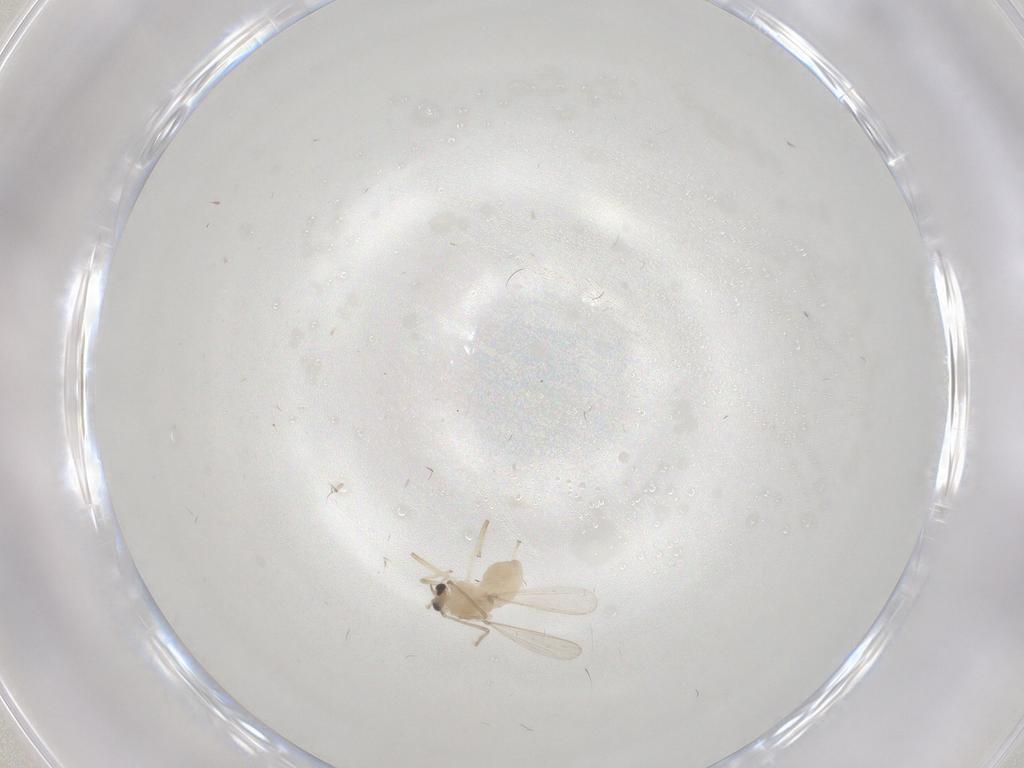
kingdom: Animalia
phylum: Arthropoda
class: Insecta
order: Diptera
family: Chironomidae
